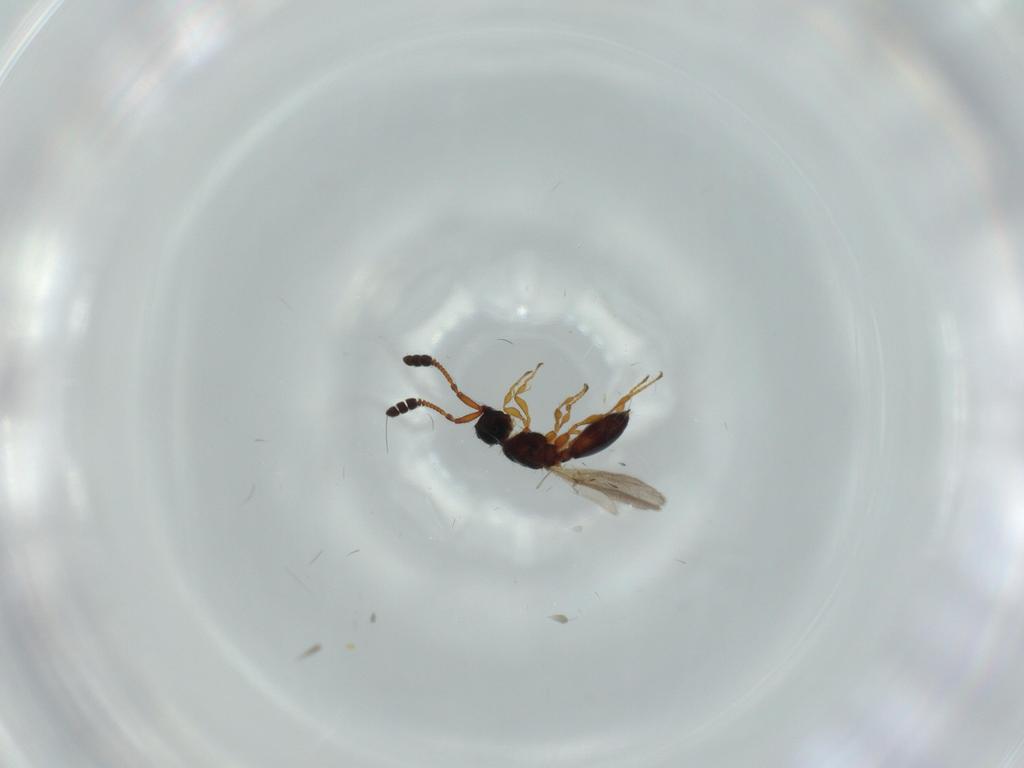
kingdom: Animalia
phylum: Arthropoda
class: Insecta
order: Hymenoptera
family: Diapriidae
